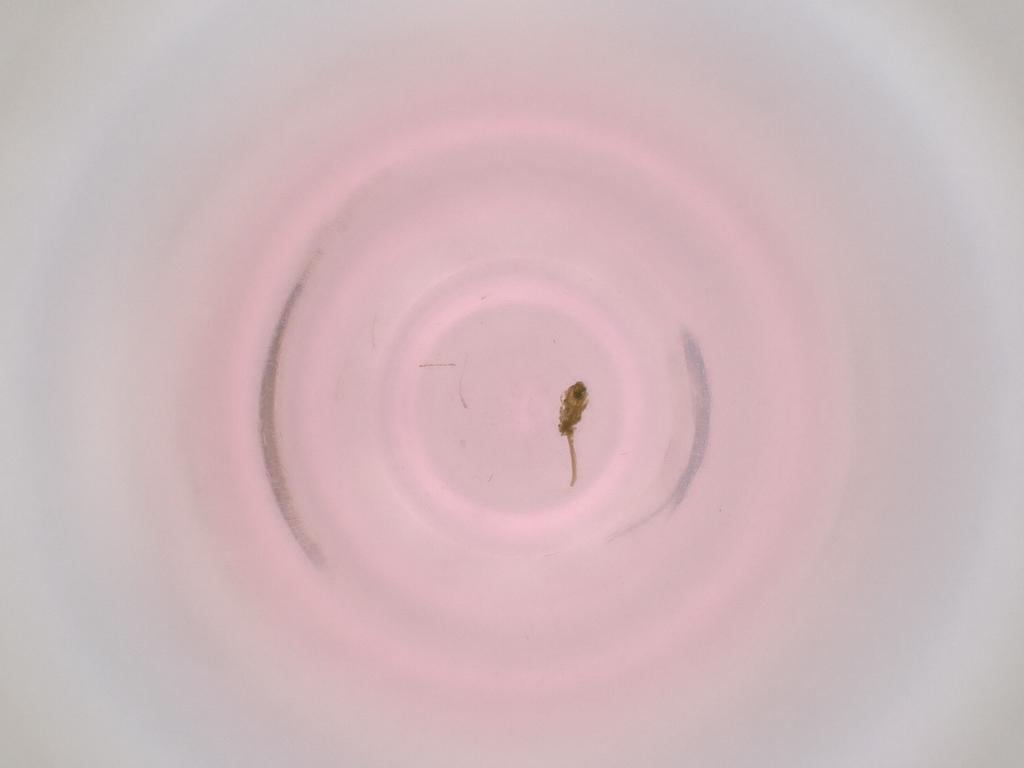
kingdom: Animalia
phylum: Arthropoda
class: Insecta
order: Diptera
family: Cecidomyiidae
